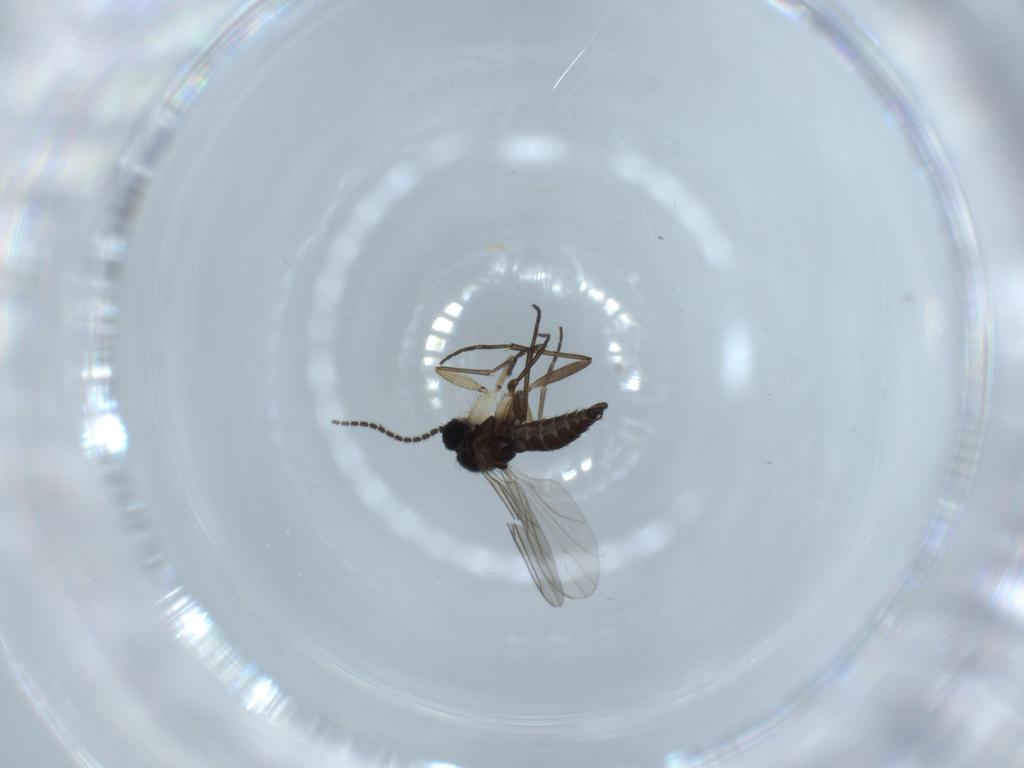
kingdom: Animalia
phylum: Arthropoda
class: Insecta
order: Diptera
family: Sciaridae
